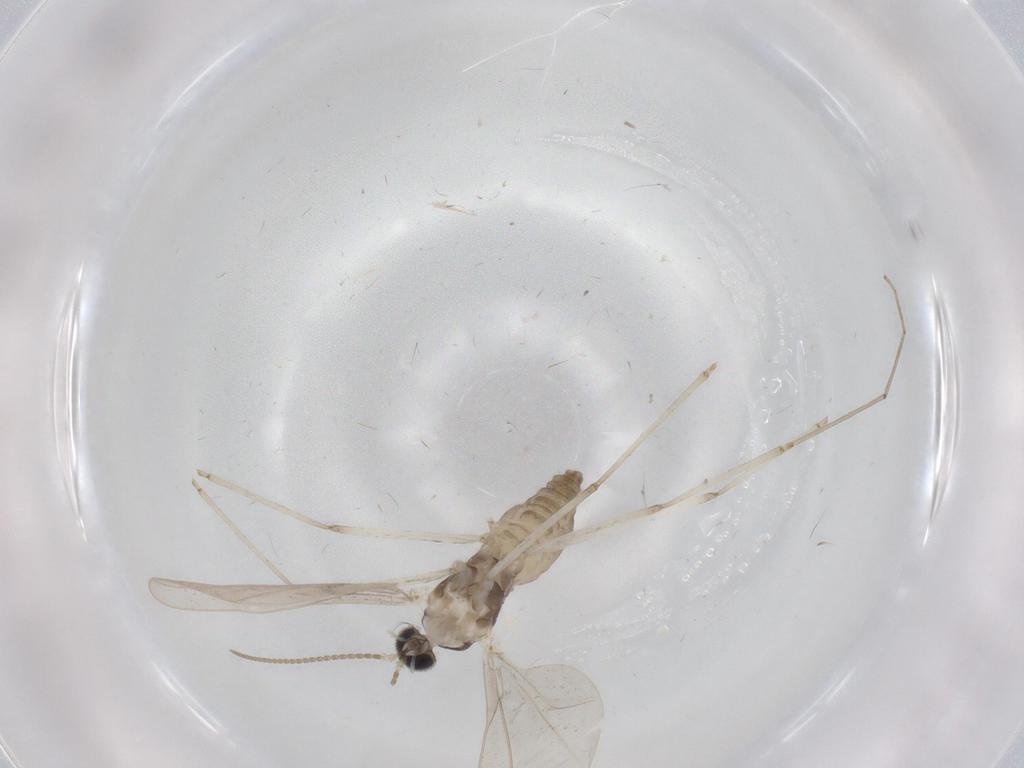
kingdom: Animalia
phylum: Arthropoda
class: Insecta
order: Diptera
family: Cecidomyiidae
